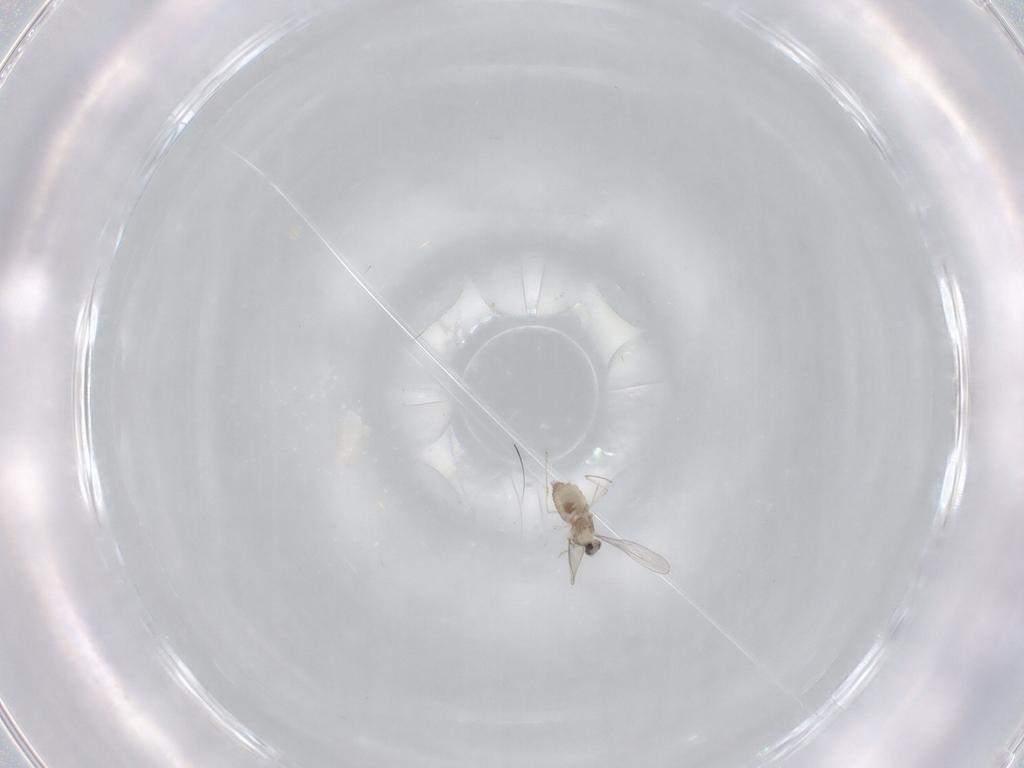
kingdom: Animalia
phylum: Arthropoda
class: Insecta
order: Diptera
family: Cecidomyiidae
